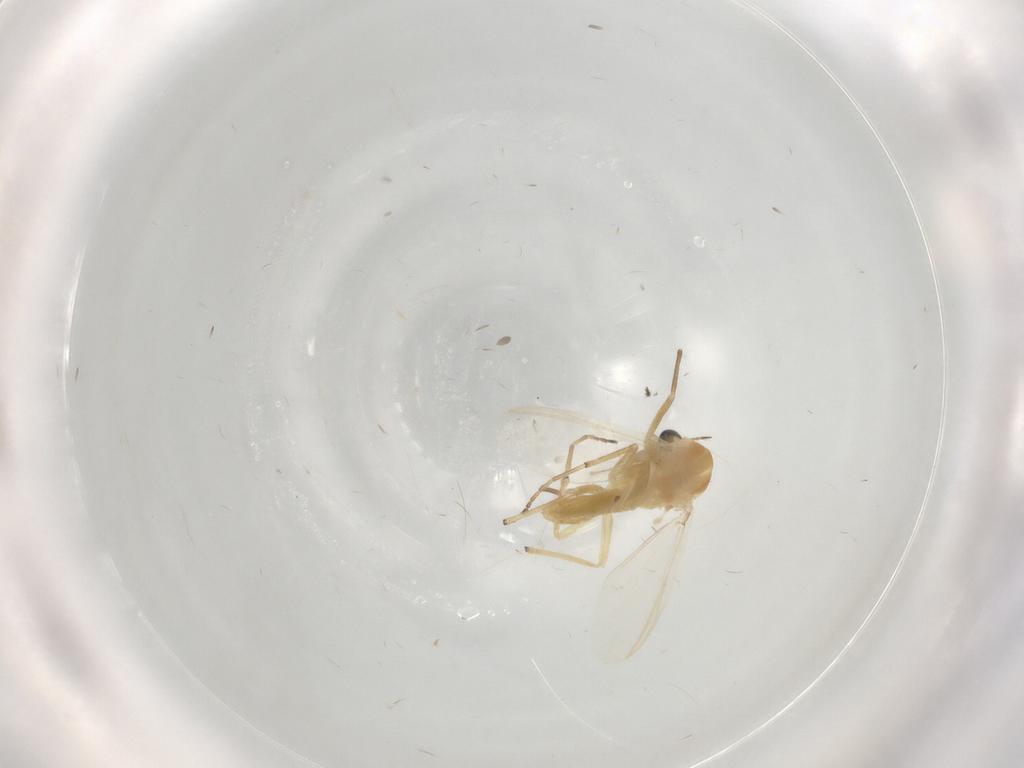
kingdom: Animalia
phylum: Arthropoda
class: Insecta
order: Diptera
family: Chironomidae
